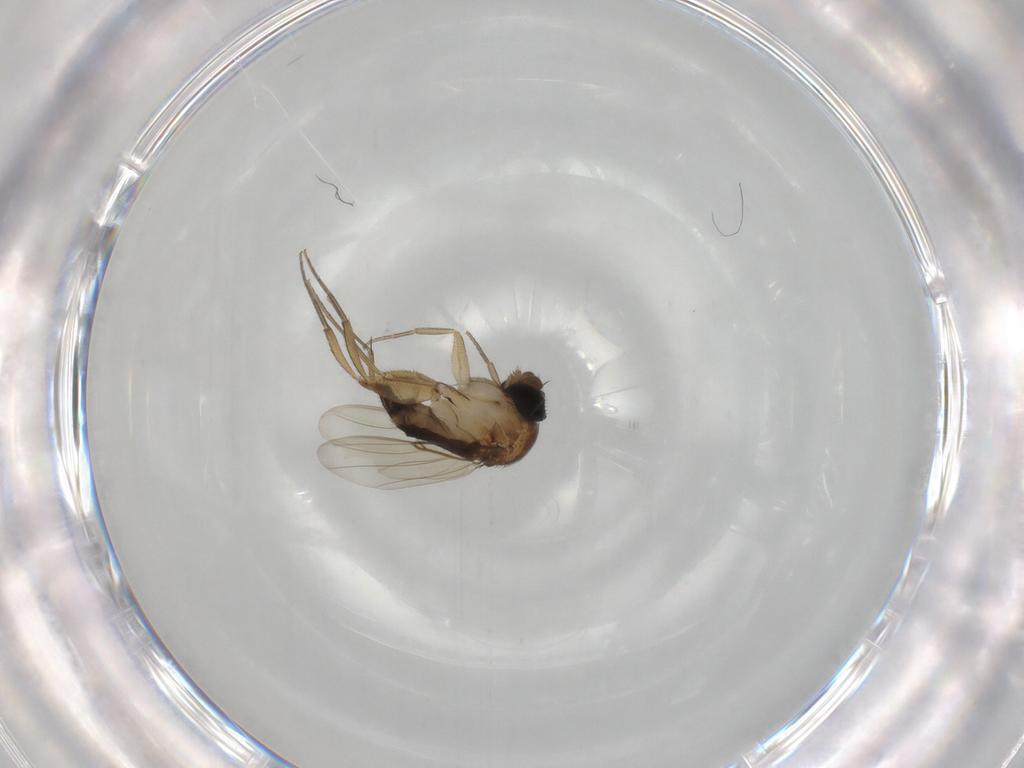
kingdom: Animalia
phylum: Arthropoda
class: Insecta
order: Diptera
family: Phoridae
